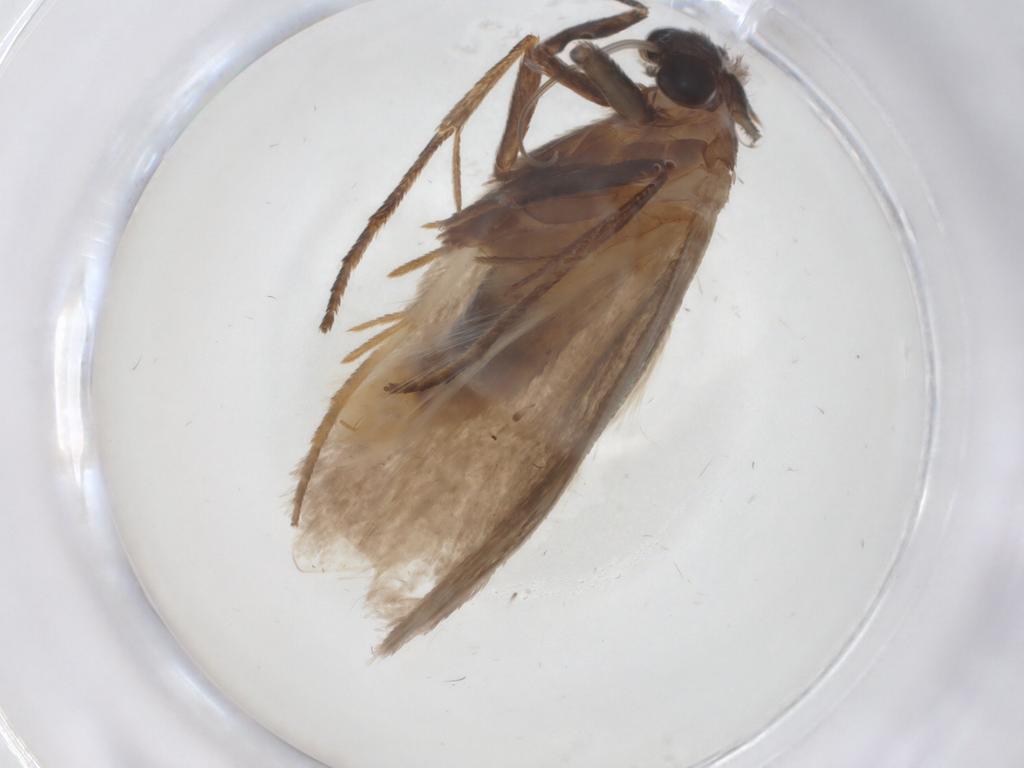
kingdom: Animalia
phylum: Arthropoda
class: Insecta
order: Lepidoptera
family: Roeslerstammiidae
